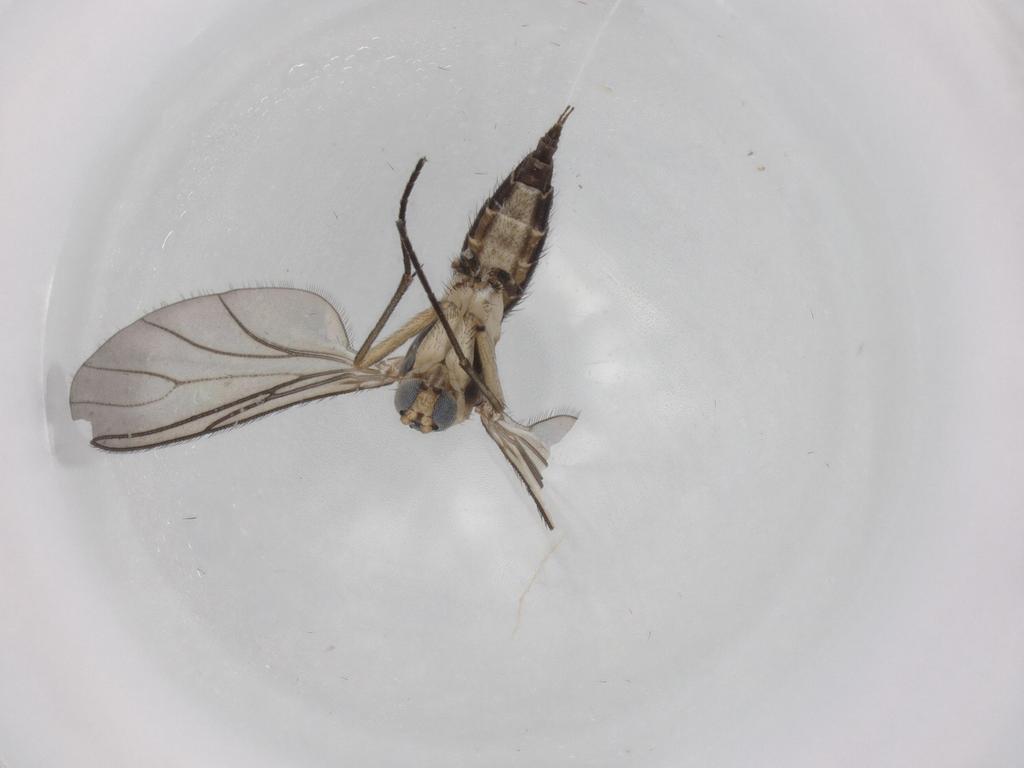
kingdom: Animalia
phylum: Arthropoda
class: Insecta
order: Diptera
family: Sciaridae
